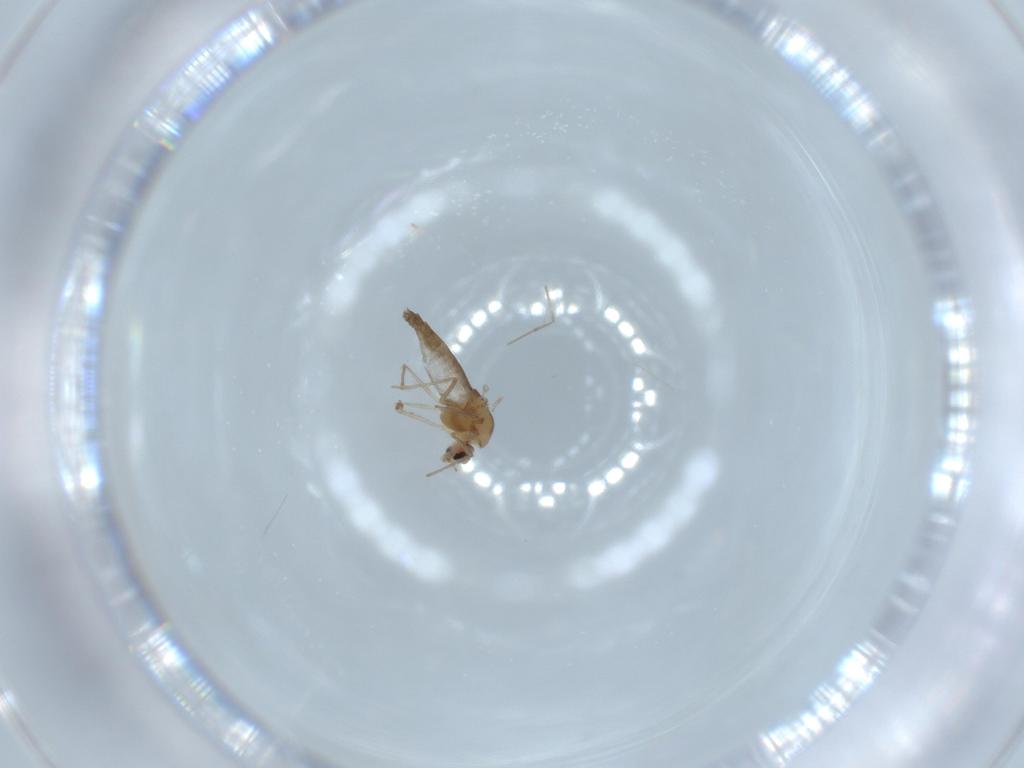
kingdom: Animalia
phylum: Arthropoda
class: Insecta
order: Diptera
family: Chironomidae
